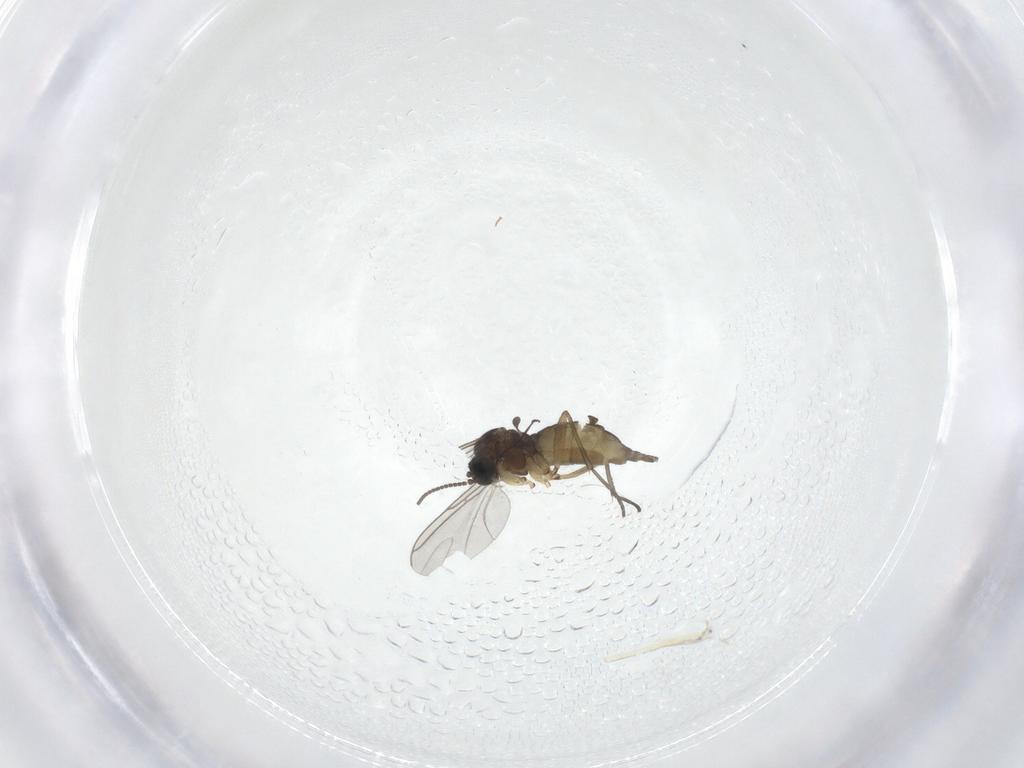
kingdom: Animalia
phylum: Arthropoda
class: Insecta
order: Diptera
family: Sciaridae
